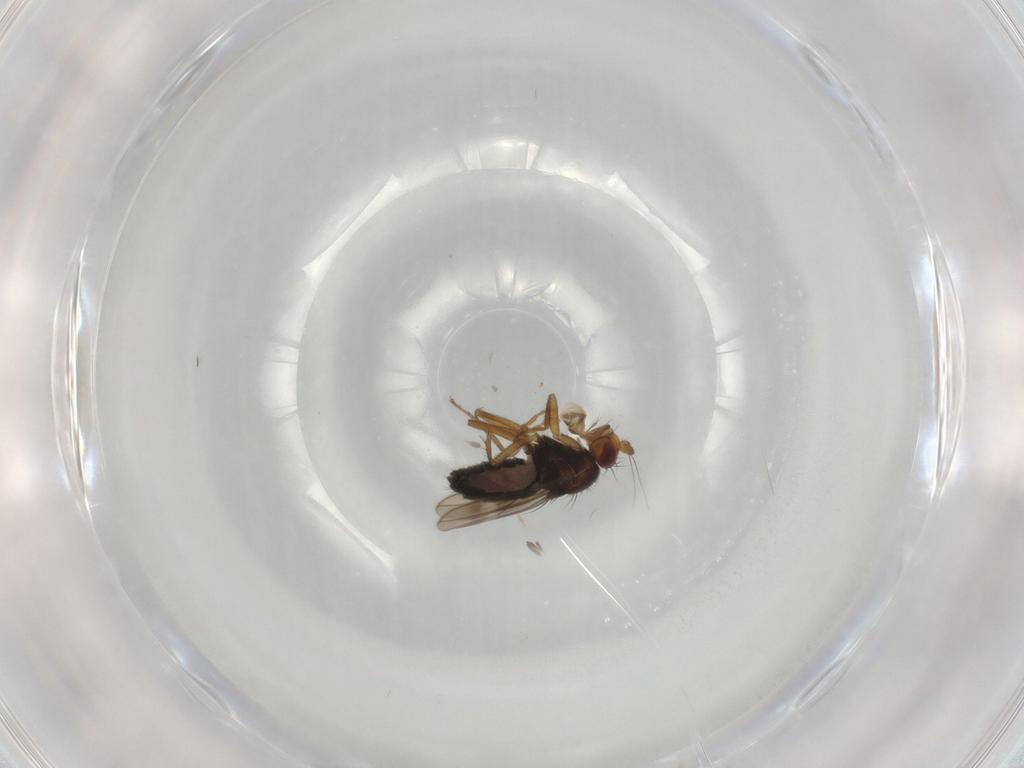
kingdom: Animalia
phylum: Arthropoda
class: Insecta
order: Diptera
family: Sphaeroceridae
